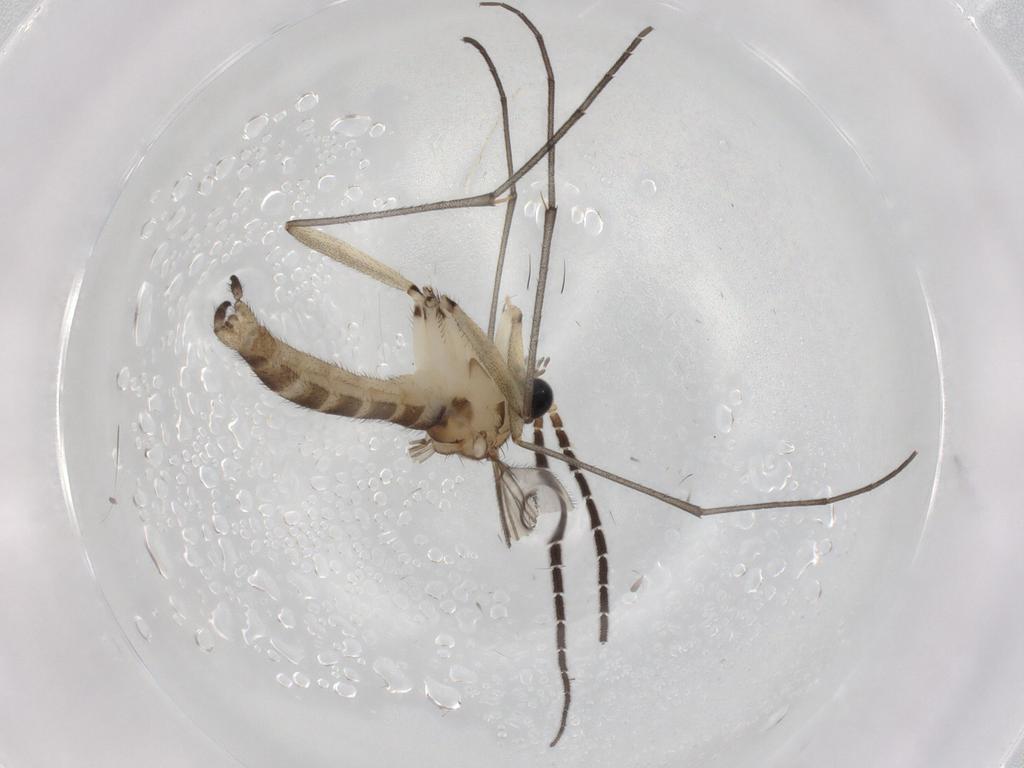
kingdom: Animalia
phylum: Arthropoda
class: Insecta
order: Diptera
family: Sciaridae
